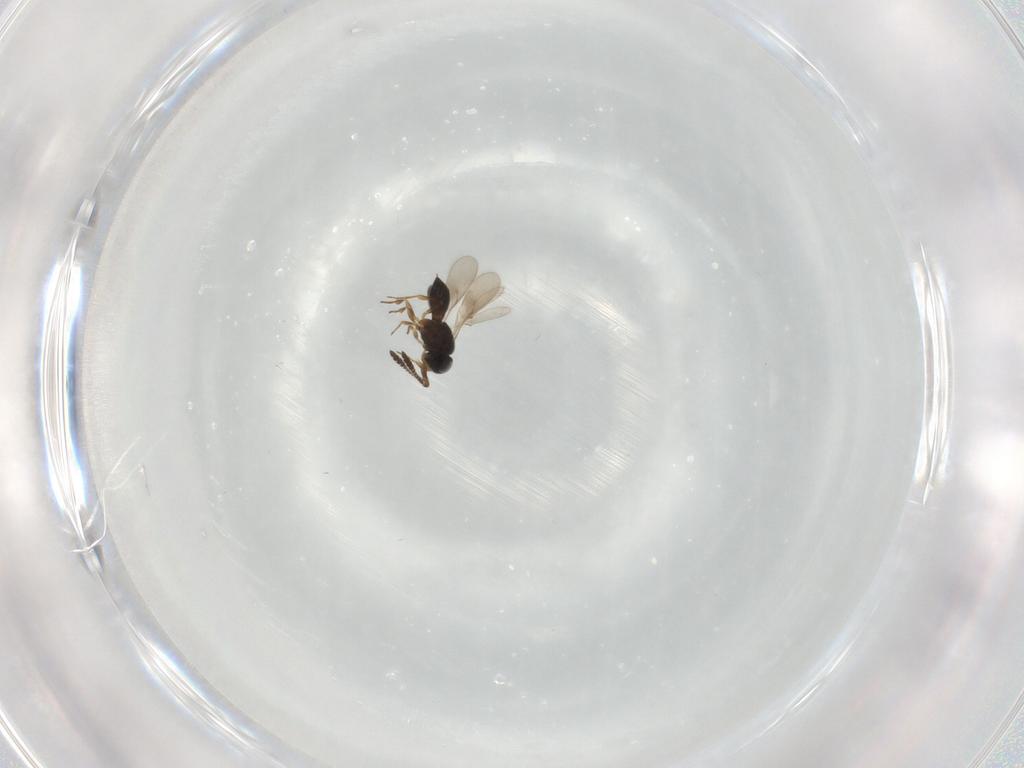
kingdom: Animalia
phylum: Arthropoda
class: Insecta
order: Hymenoptera
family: Scelionidae
